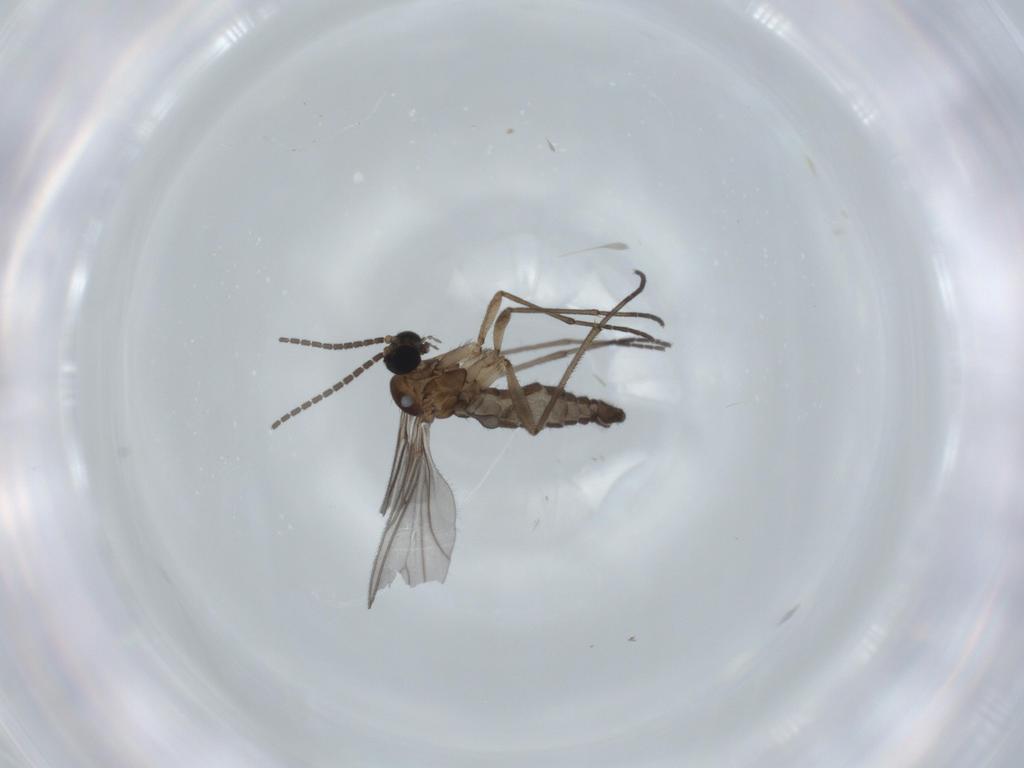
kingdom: Animalia
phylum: Arthropoda
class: Insecta
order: Diptera
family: Sciaridae
